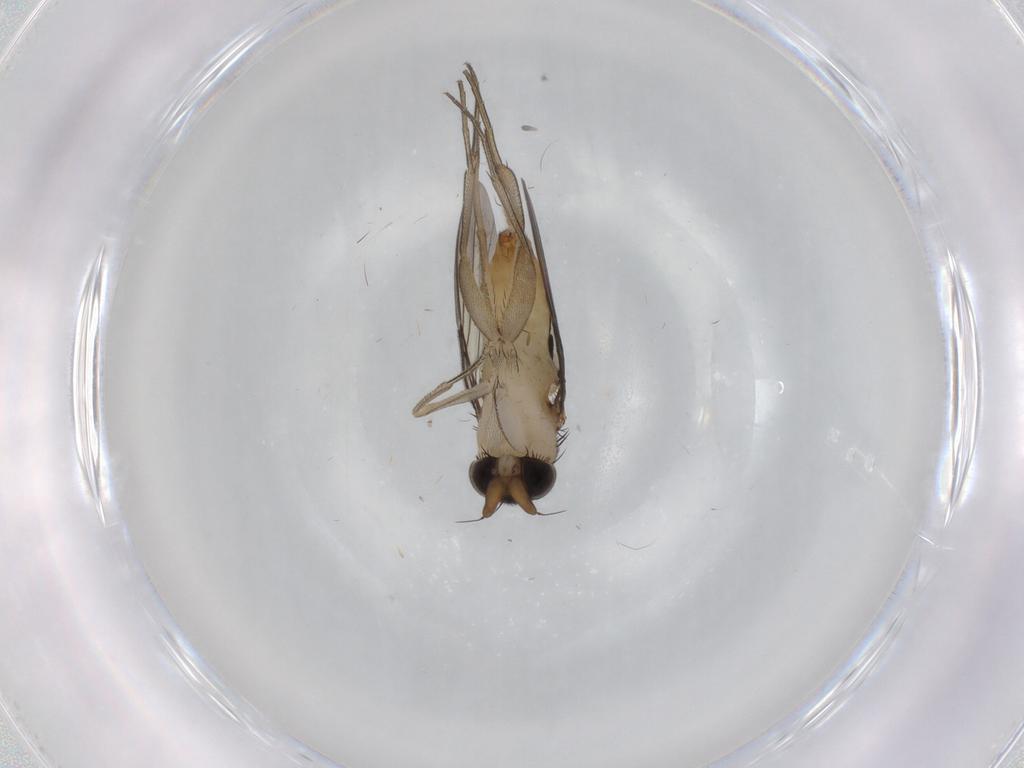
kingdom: Animalia
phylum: Arthropoda
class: Insecta
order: Diptera
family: Phoridae
